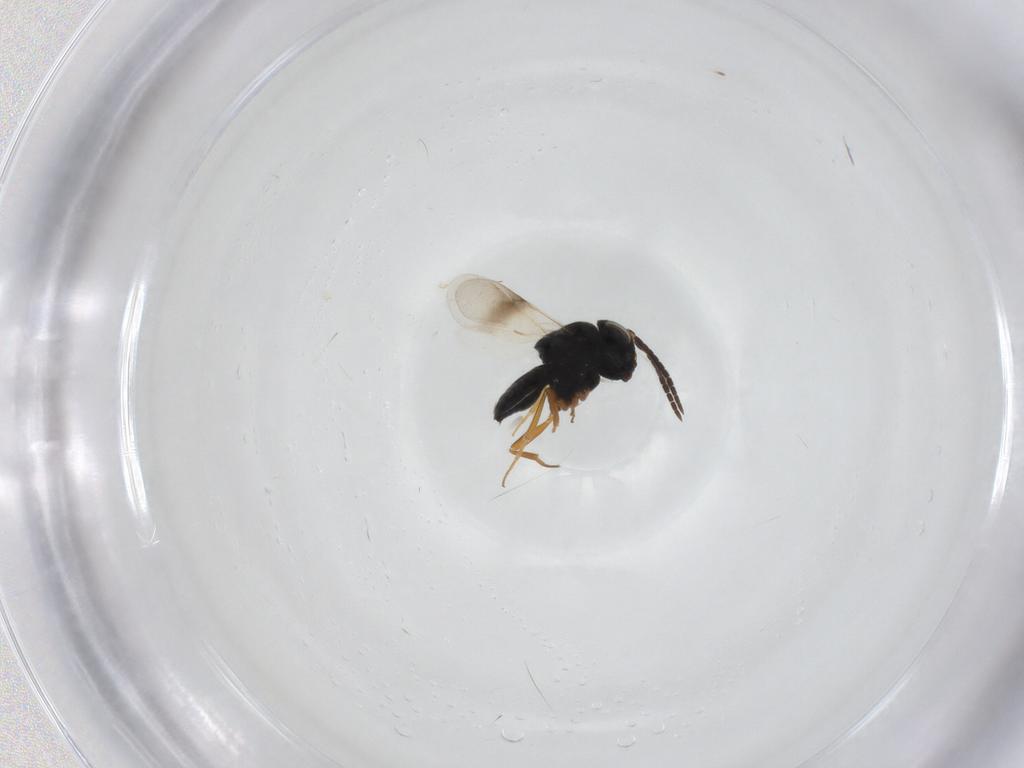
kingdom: Animalia
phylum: Arthropoda
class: Insecta
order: Hymenoptera
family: Scelionidae
